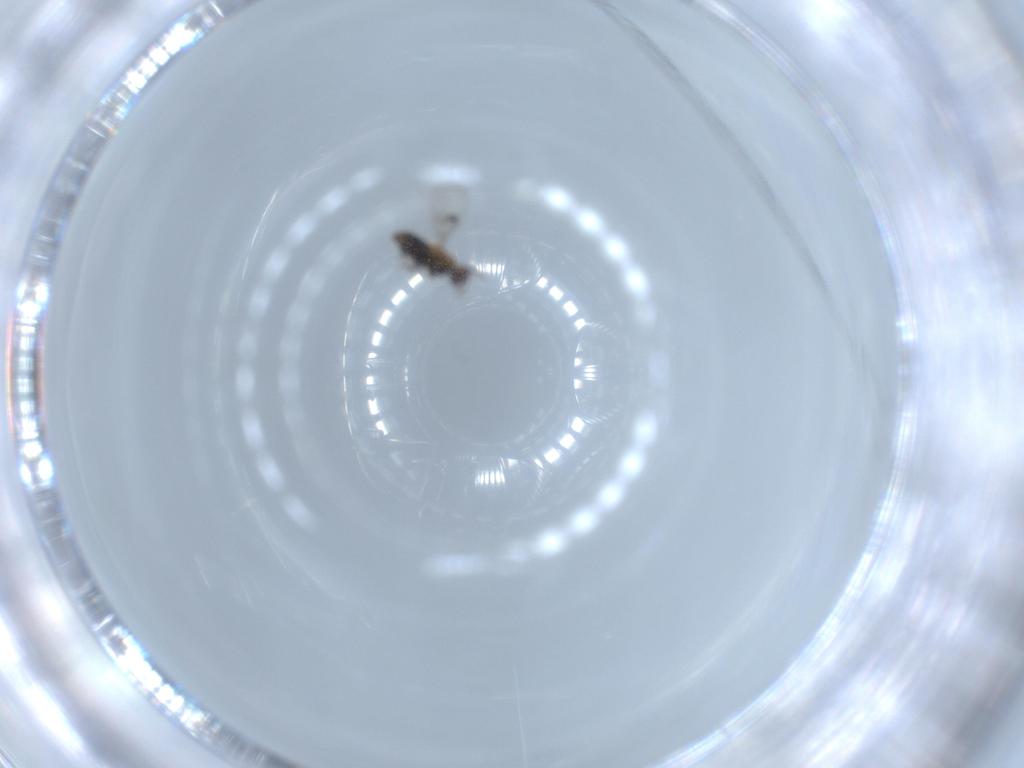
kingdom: Animalia
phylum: Arthropoda
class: Insecta
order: Hymenoptera
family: Eupelmidae
